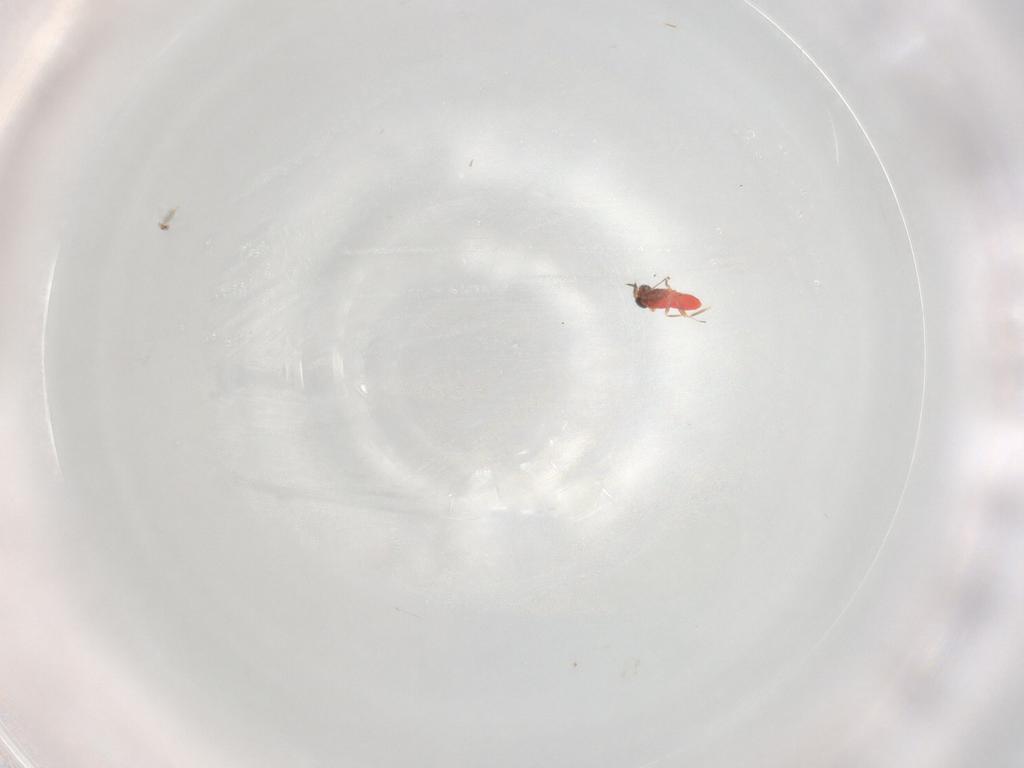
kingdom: Animalia
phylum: Arthropoda
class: Insecta
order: Hymenoptera
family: Trichogrammatidae
